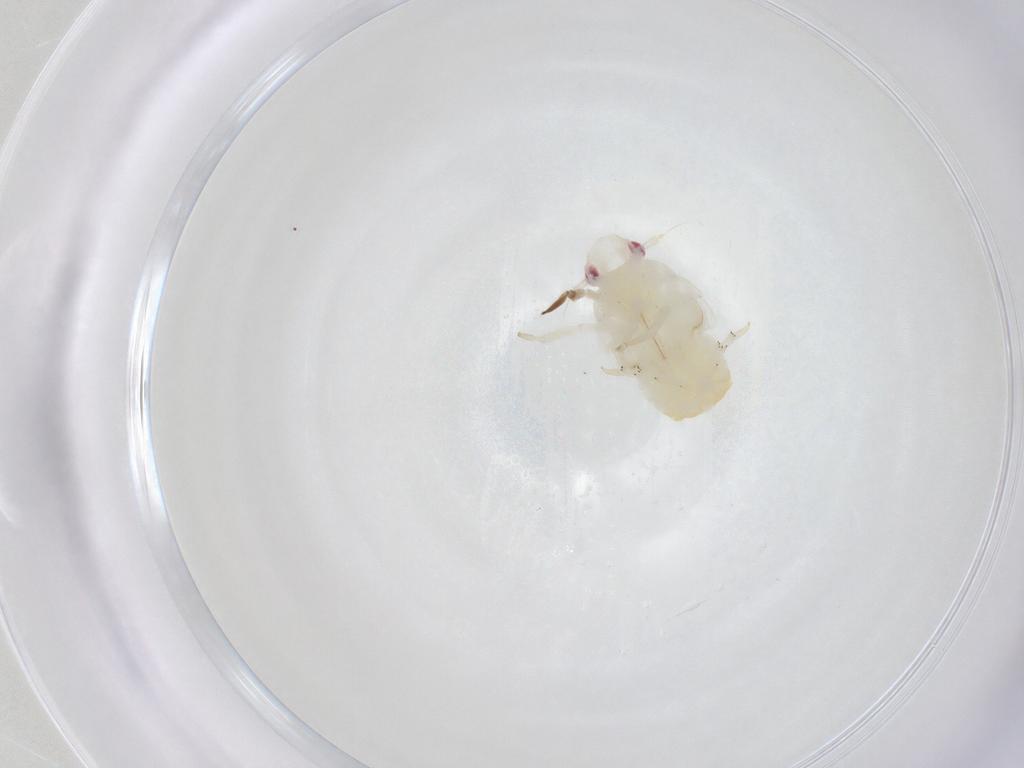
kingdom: Animalia
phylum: Arthropoda
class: Insecta
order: Hemiptera
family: Fulgoroidea_incertae_sedis
